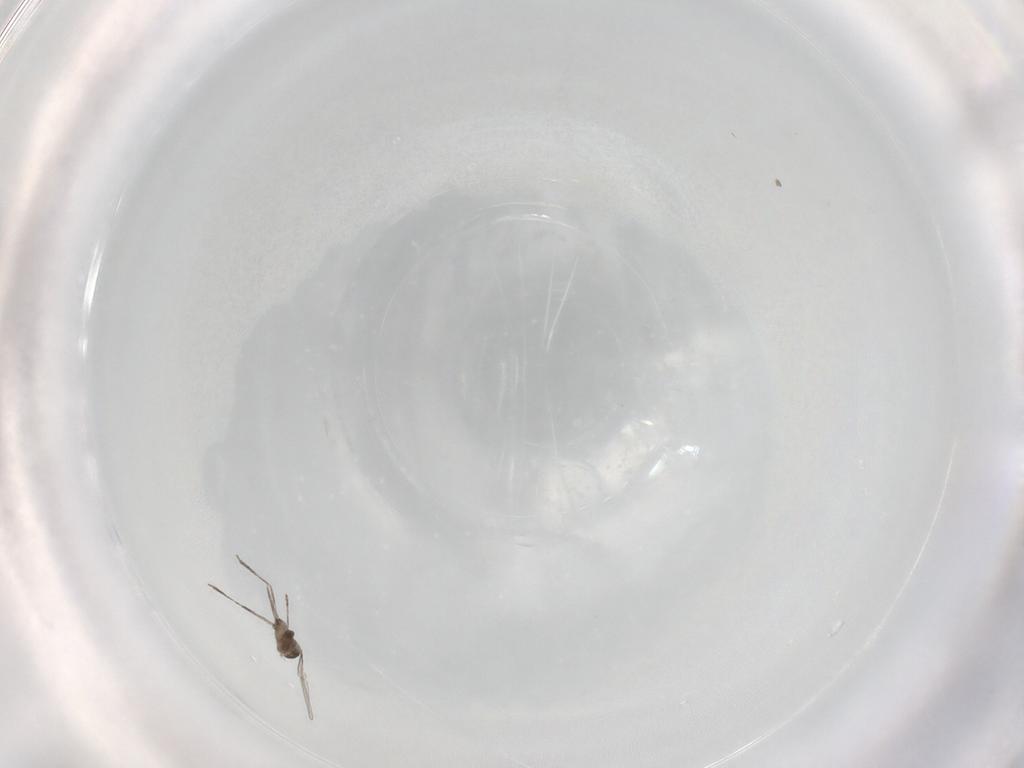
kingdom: Animalia
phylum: Arthropoda
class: Insecta
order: Diptera
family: Cecidomyiidae
